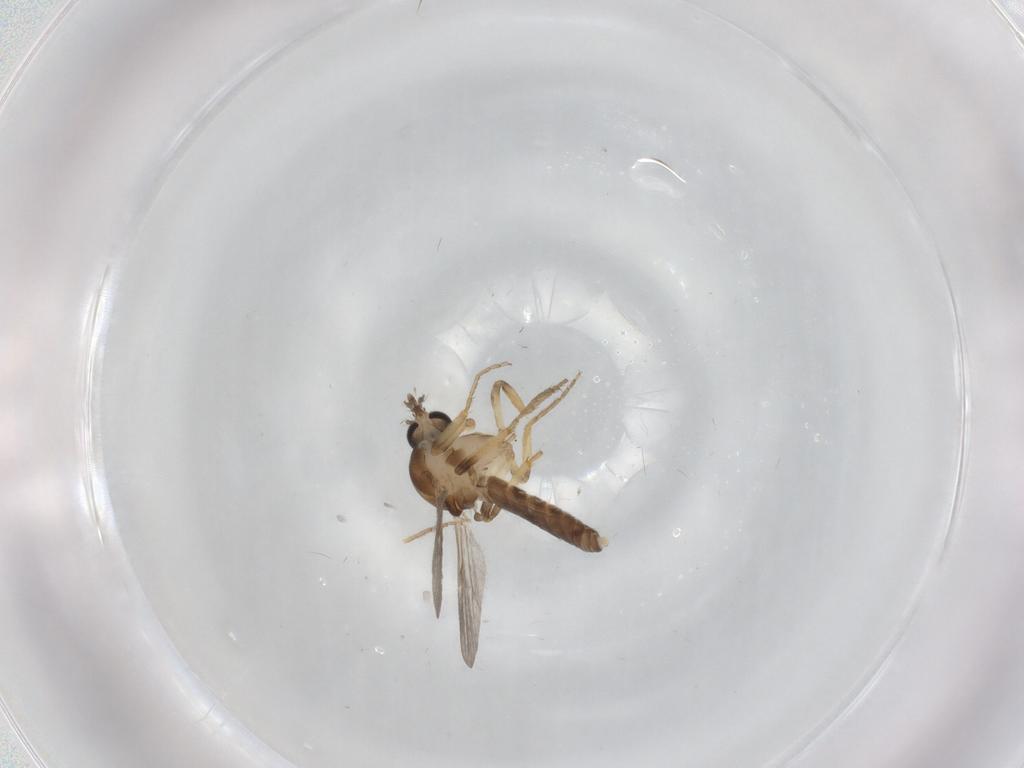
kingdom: Animalia
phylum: Arthropoda
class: Insecta
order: Diptera
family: Ceratopogonidae
